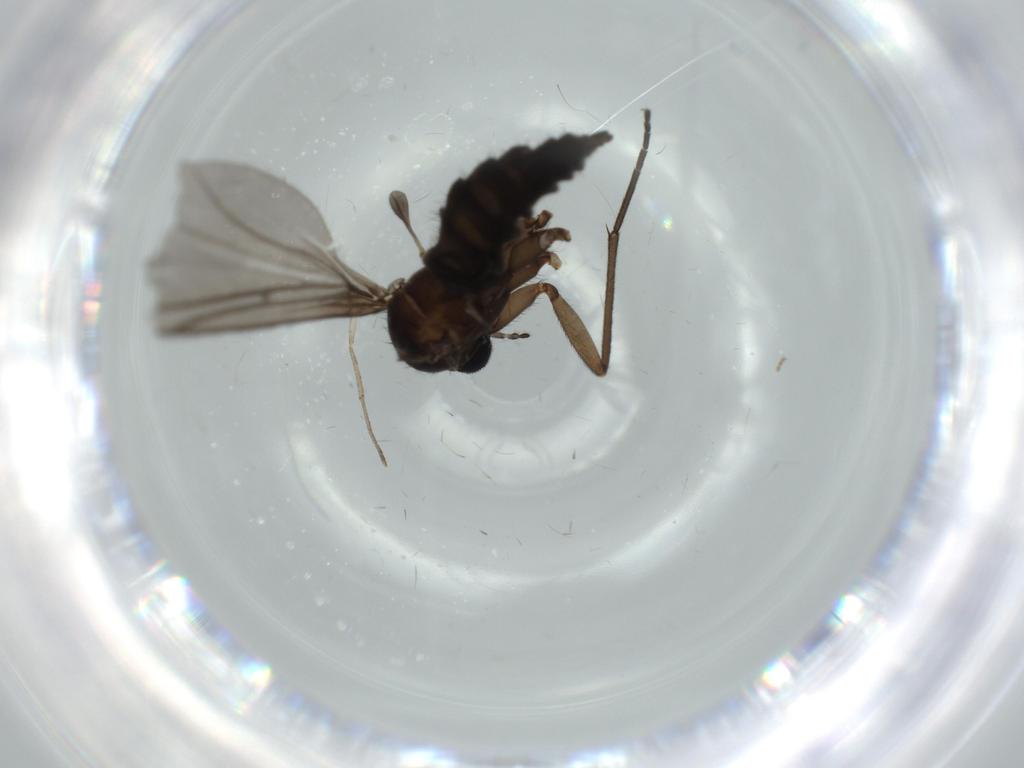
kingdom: Animalia
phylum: Arthropoda
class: Insecta
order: Diptera
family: Sciaridae
